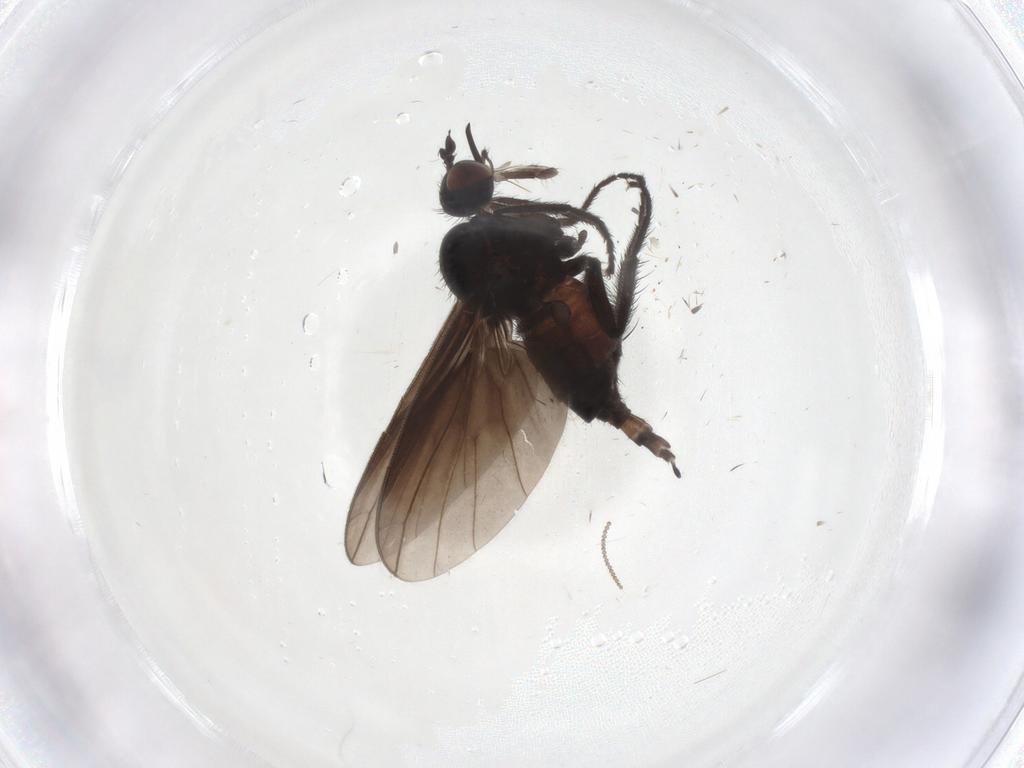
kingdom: Animalia
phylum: Arthropoda
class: Insecta
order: Diptera
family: Empididae
